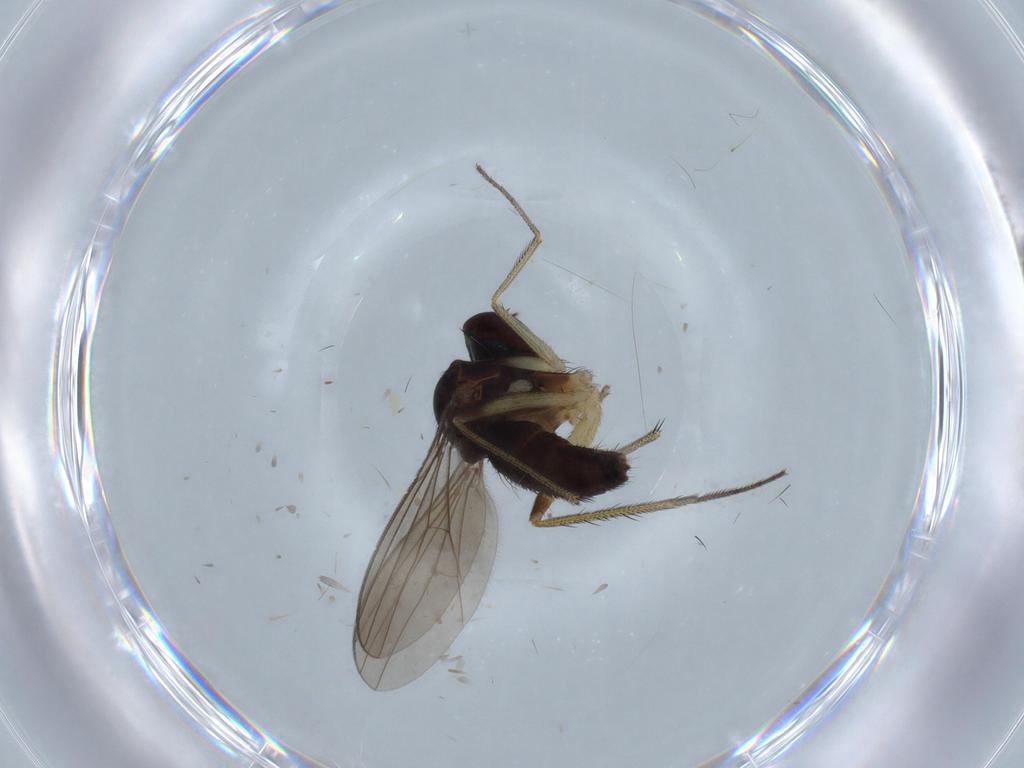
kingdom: Animalia
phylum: Arthropoda
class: Insecta
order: Diptera
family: Dolichopodidae
